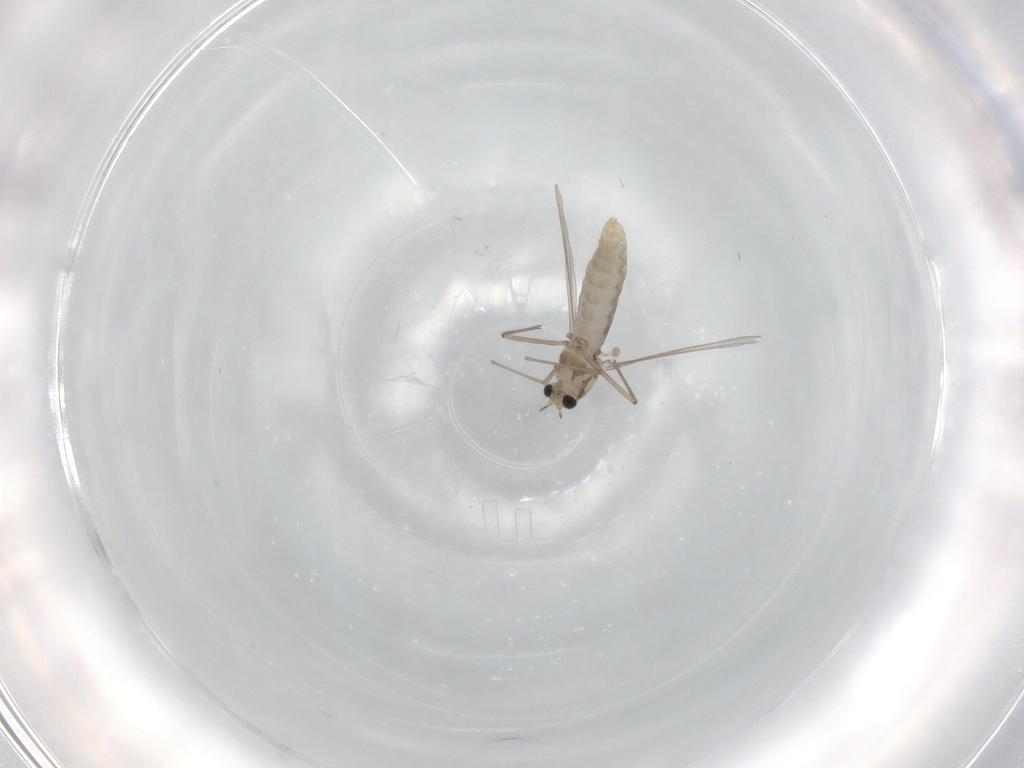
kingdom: Animalia
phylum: Arthropoda
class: Insecta
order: Diptera
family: Chironomidae
